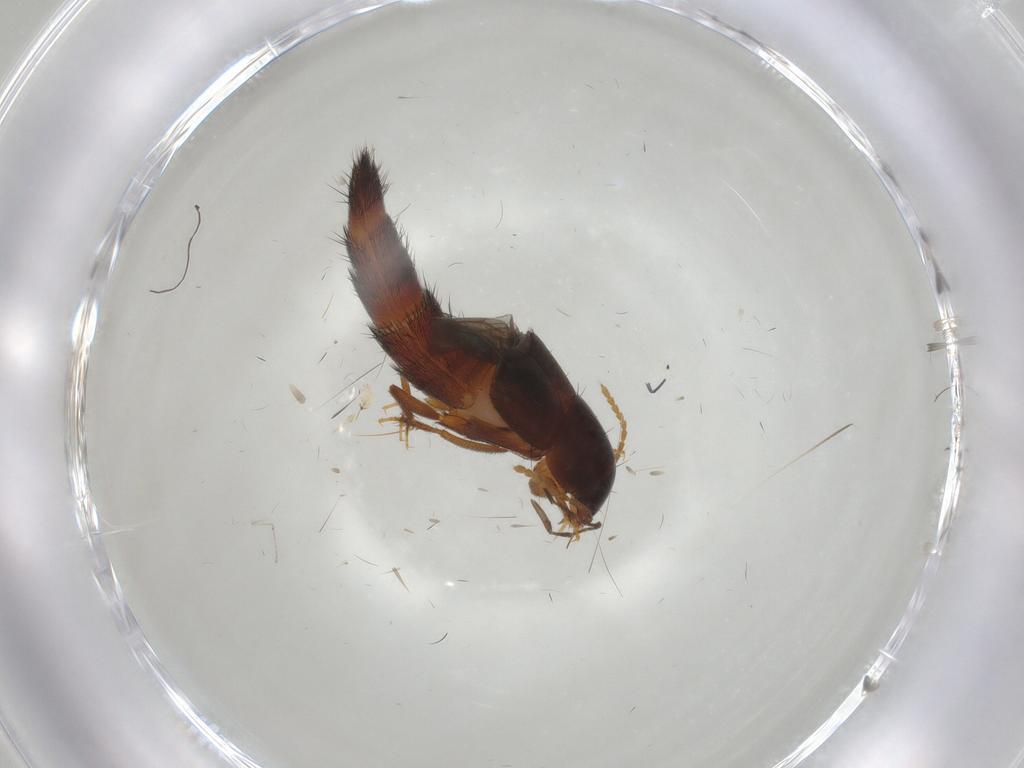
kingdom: Animalia
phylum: Arthropoda
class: Insecta
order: Coleoptera
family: Staphylinidae
